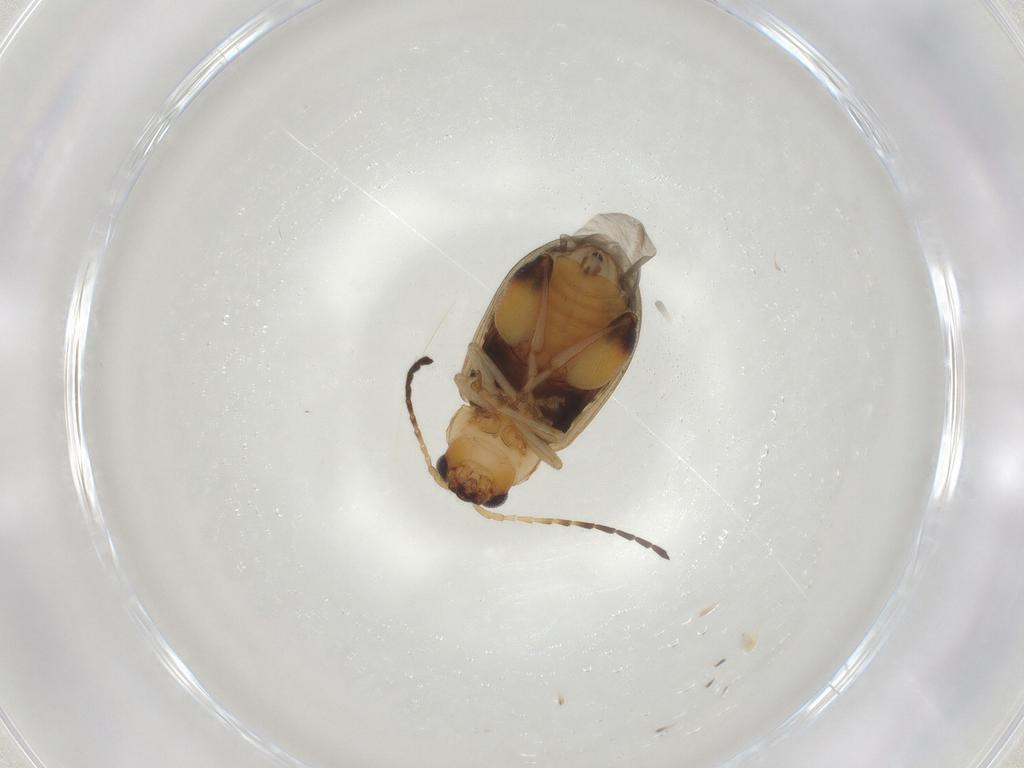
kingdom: Animalia
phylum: Arthropoda
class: Insecta
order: Coleoptera
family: Chrysomelidae
